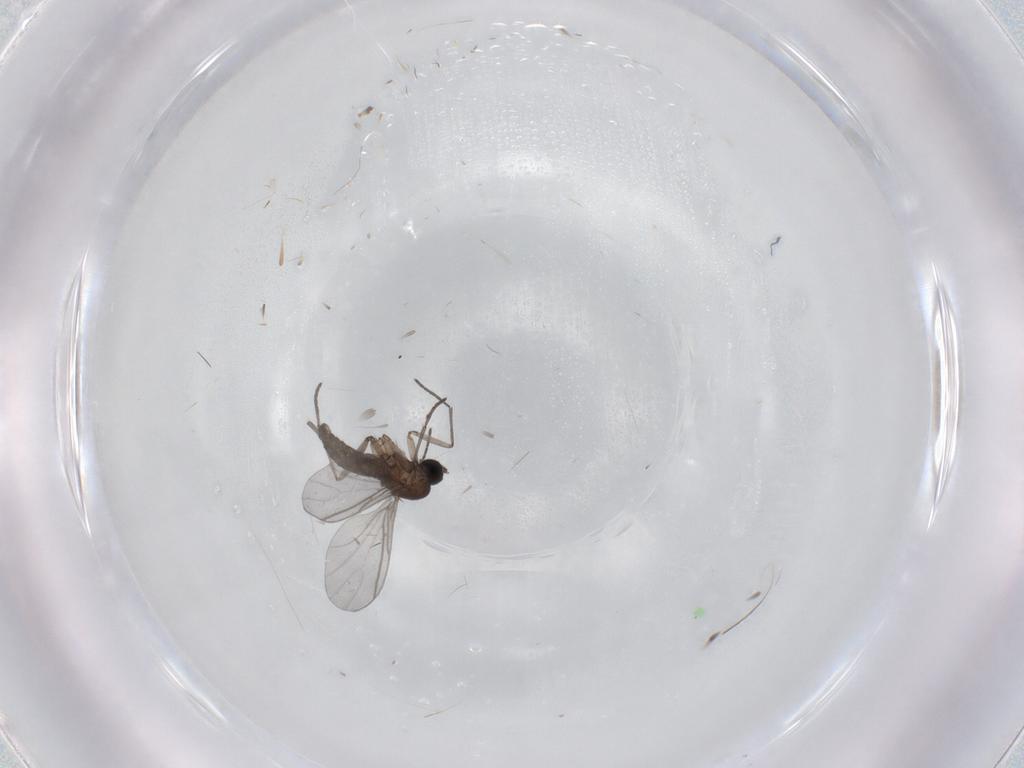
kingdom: Animalia
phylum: Arthropoda
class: Insecta
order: Diptera
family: Sciaridae
